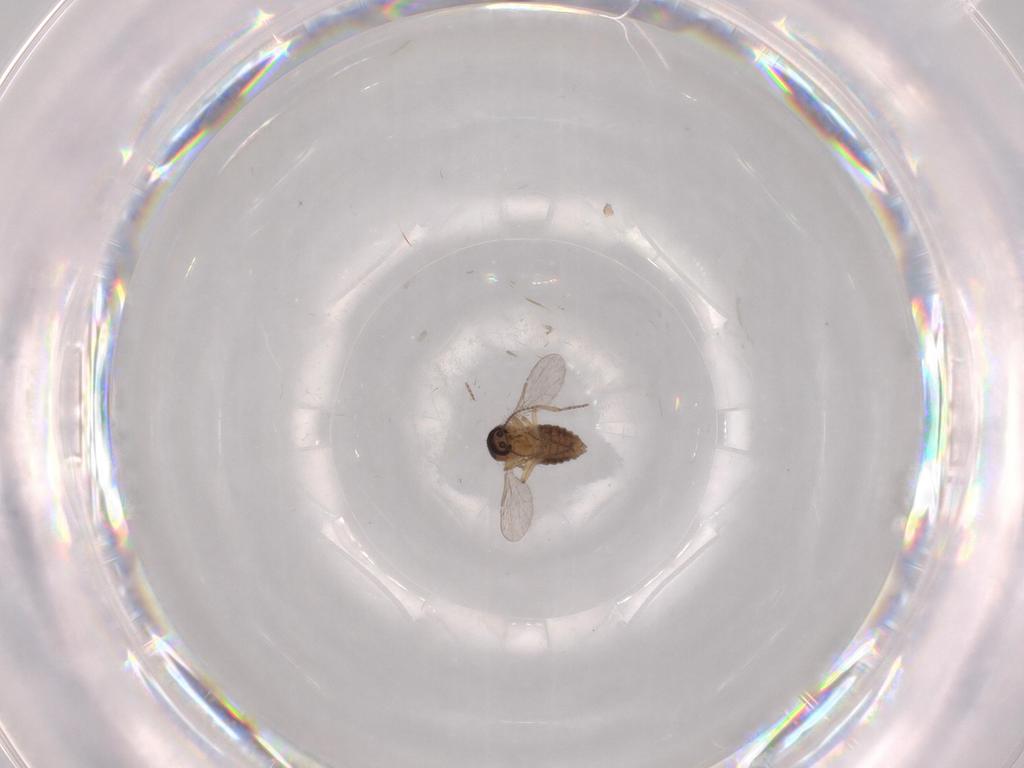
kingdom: Animalia
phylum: Arthropoda
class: Insecta
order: Diptera
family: Ceratopogonidae
